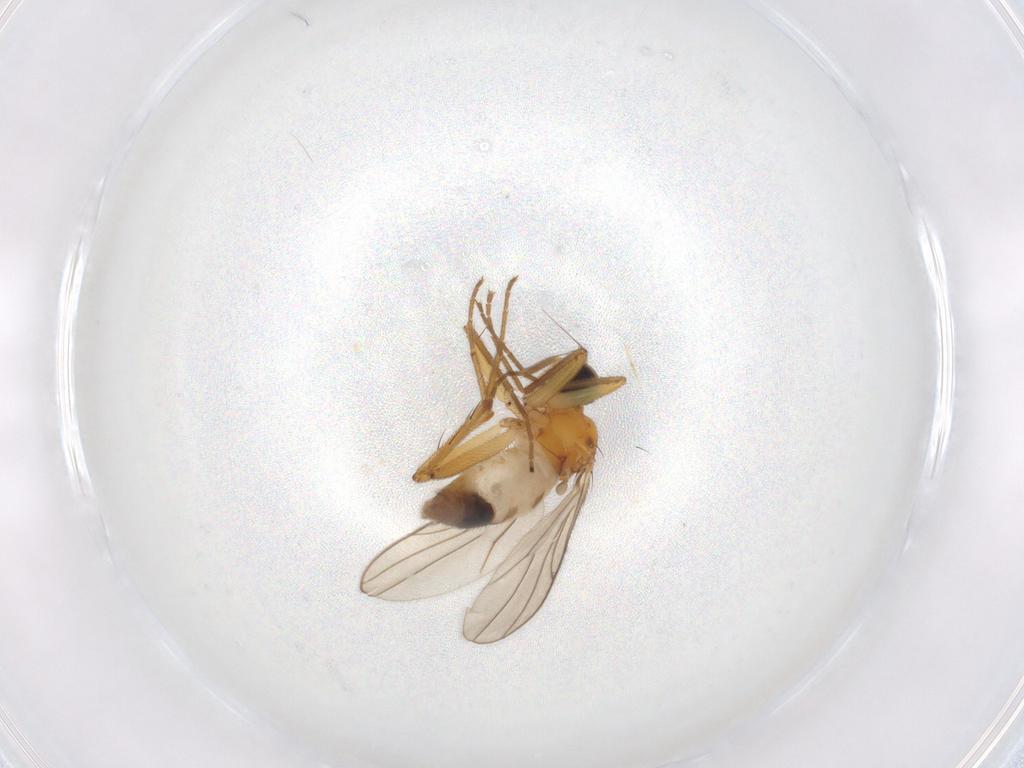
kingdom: Animalia
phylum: Arthropoda
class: Insecta
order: Diptera
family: Hybotidae
